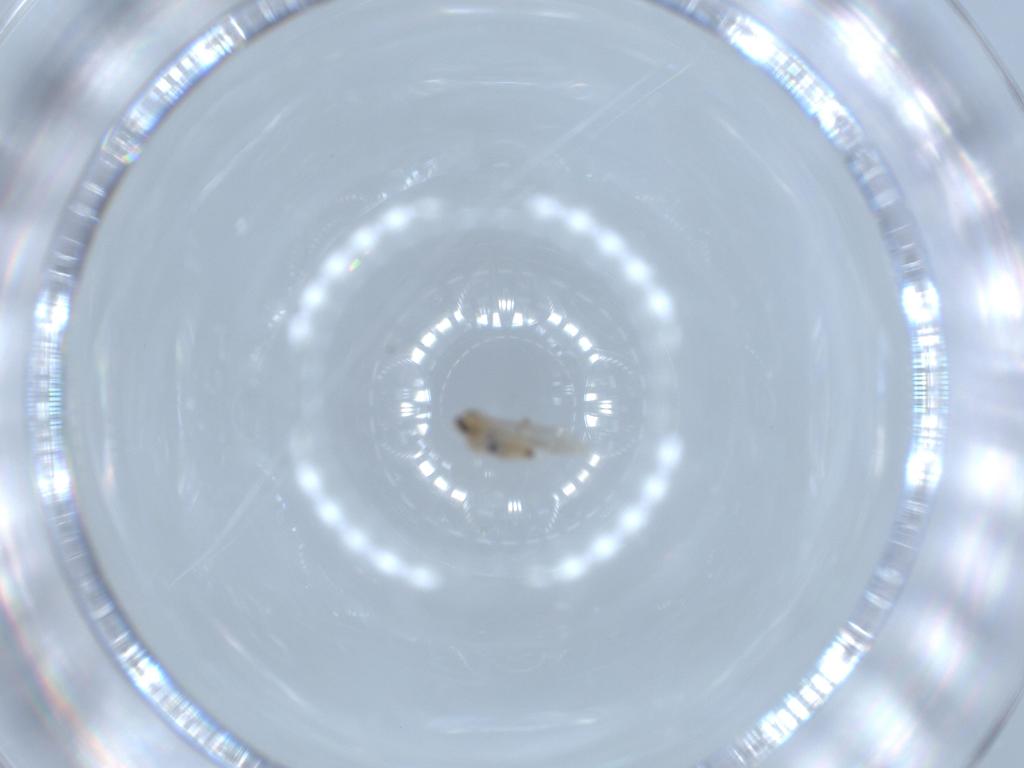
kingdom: Animalia
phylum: Arthropoda
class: Insecta
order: Diptera
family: Cecidomyiidae
